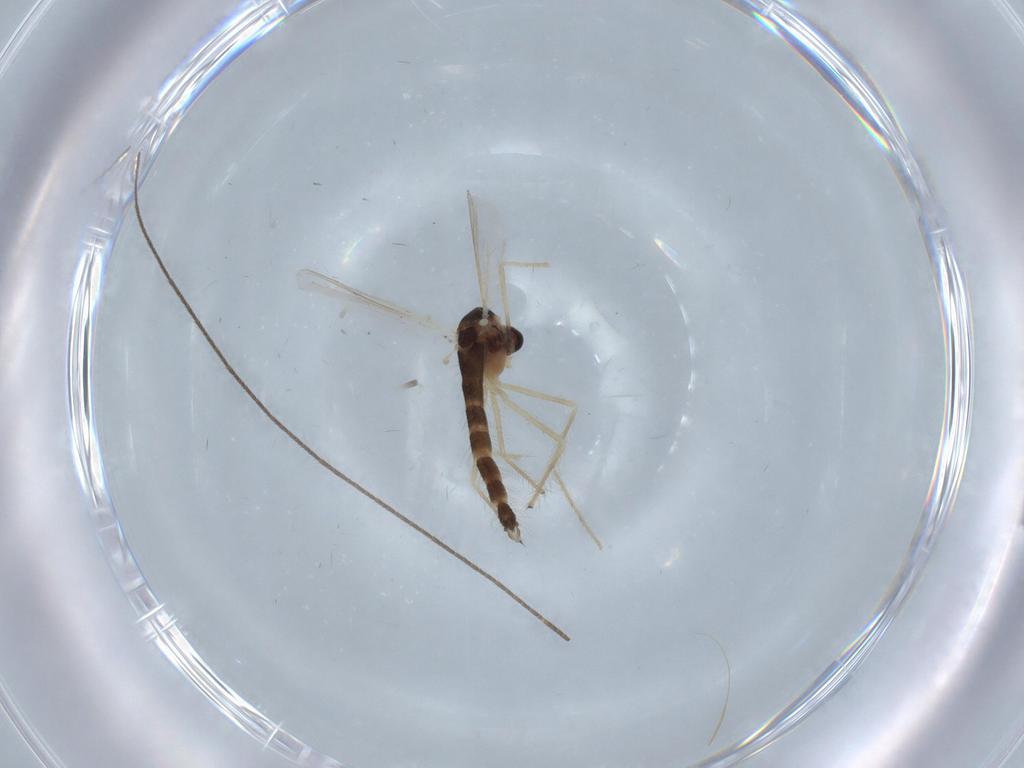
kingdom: Animalia
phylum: Arthropoda
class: Insecta
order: Diptera
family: Chironomidae
